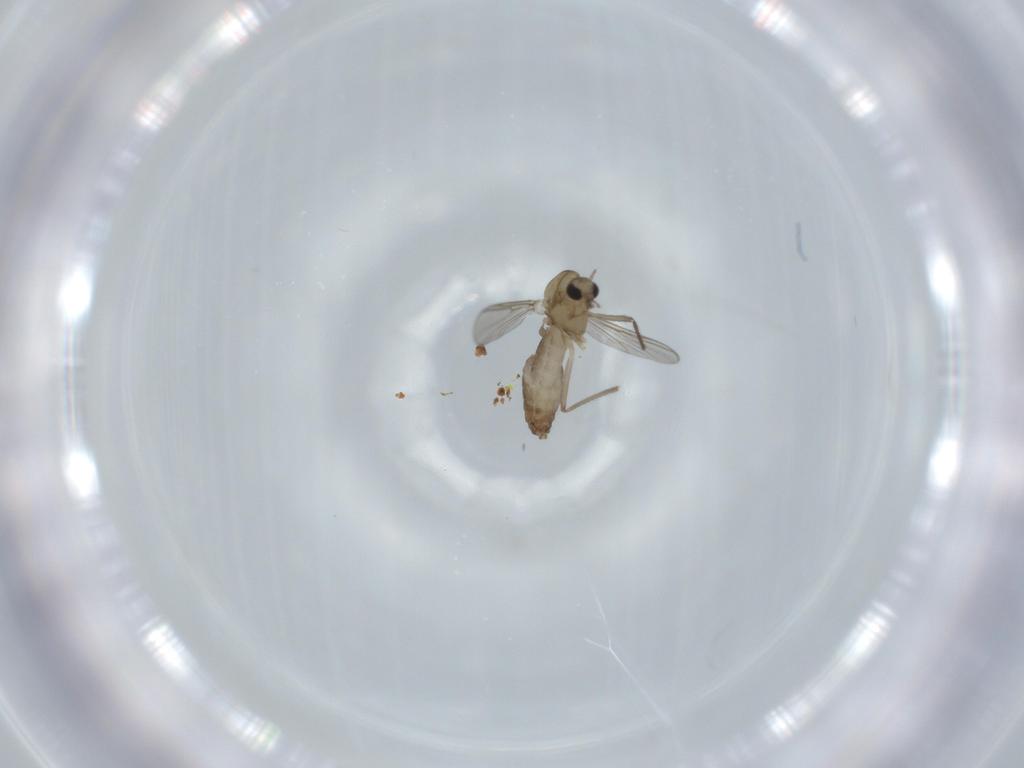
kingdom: Animalia
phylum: Arthropoda
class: Insecta
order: Diptera
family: Chironomidae
